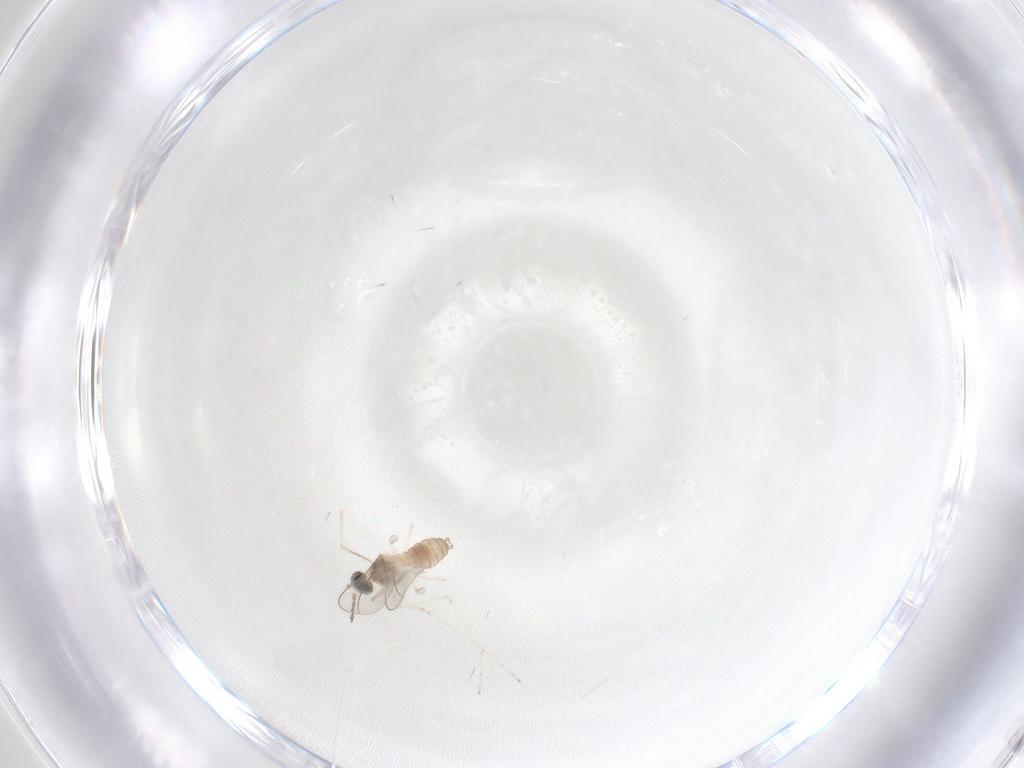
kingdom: Animalia
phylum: Arthropoda
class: Insecta
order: Diptera
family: Cecidomyiidae
